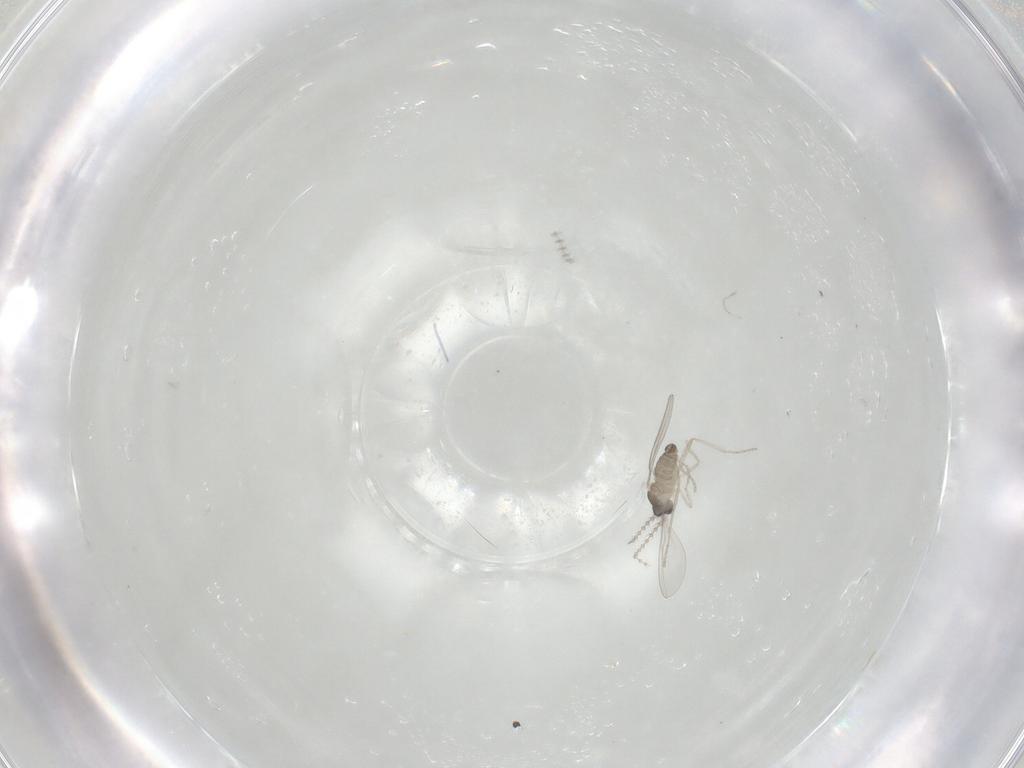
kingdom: Animalia
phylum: Arthropoda
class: Insecta
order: Diptera
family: Cecidomyiidae
